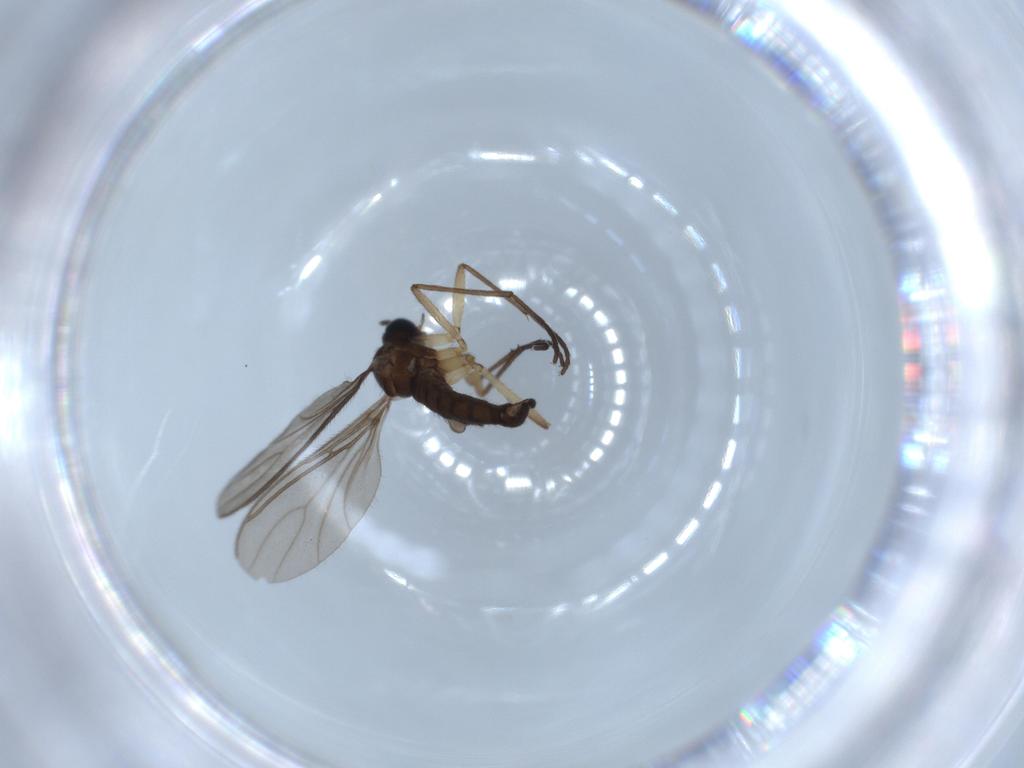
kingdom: Animalia
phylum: Arthropoda
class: Insecta
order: Diptera
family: Sciaridae
